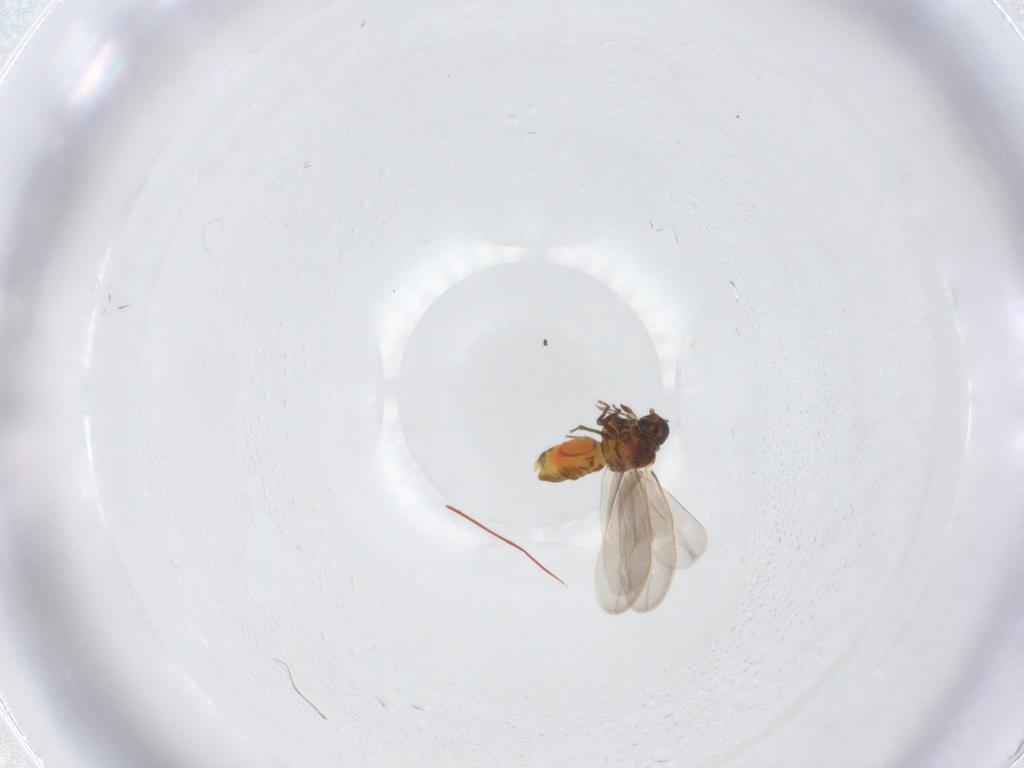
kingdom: Animalia
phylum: Arthropoda
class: Insecta
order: Hemiptera
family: Aleyrodidae
